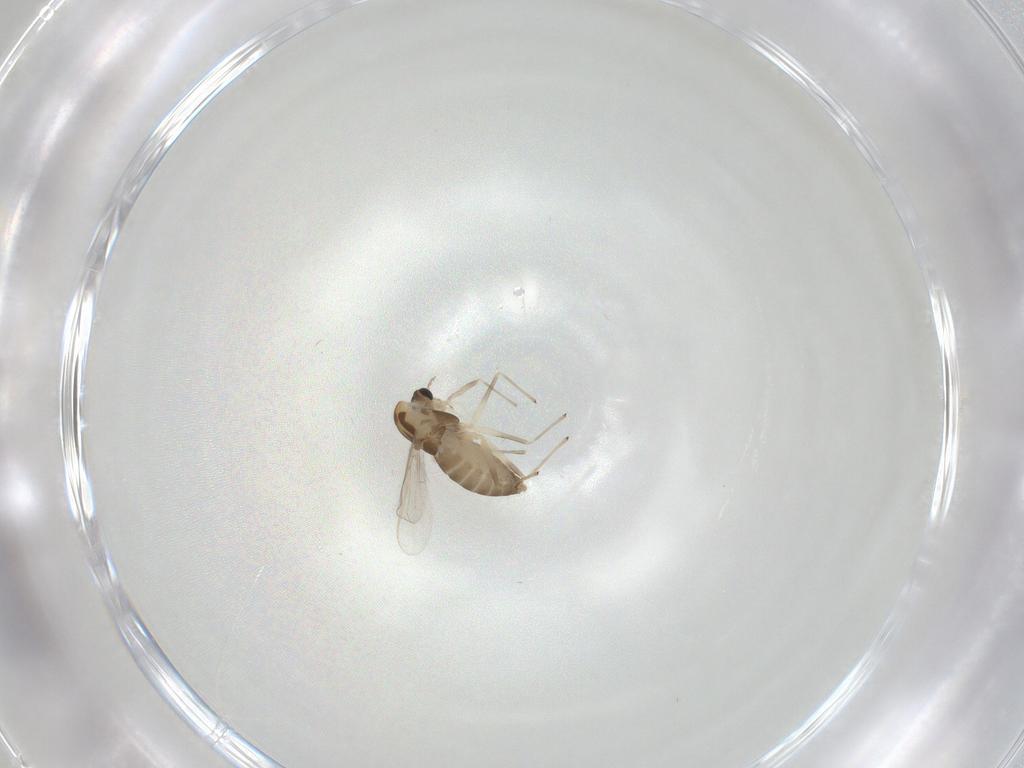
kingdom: Animalia
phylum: Arthropoda
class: Insecta
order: Diptera
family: Chironomidae
